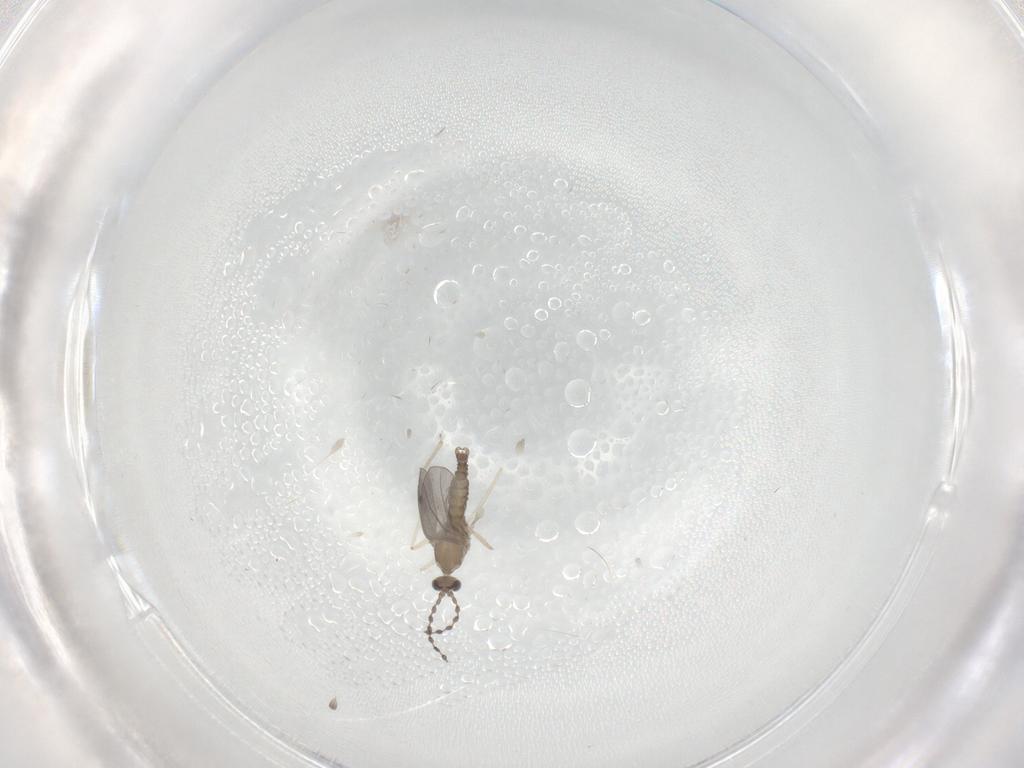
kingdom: Animalia
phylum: Arthropoda
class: Insecta
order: Diptera
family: Cecidomyiidae
